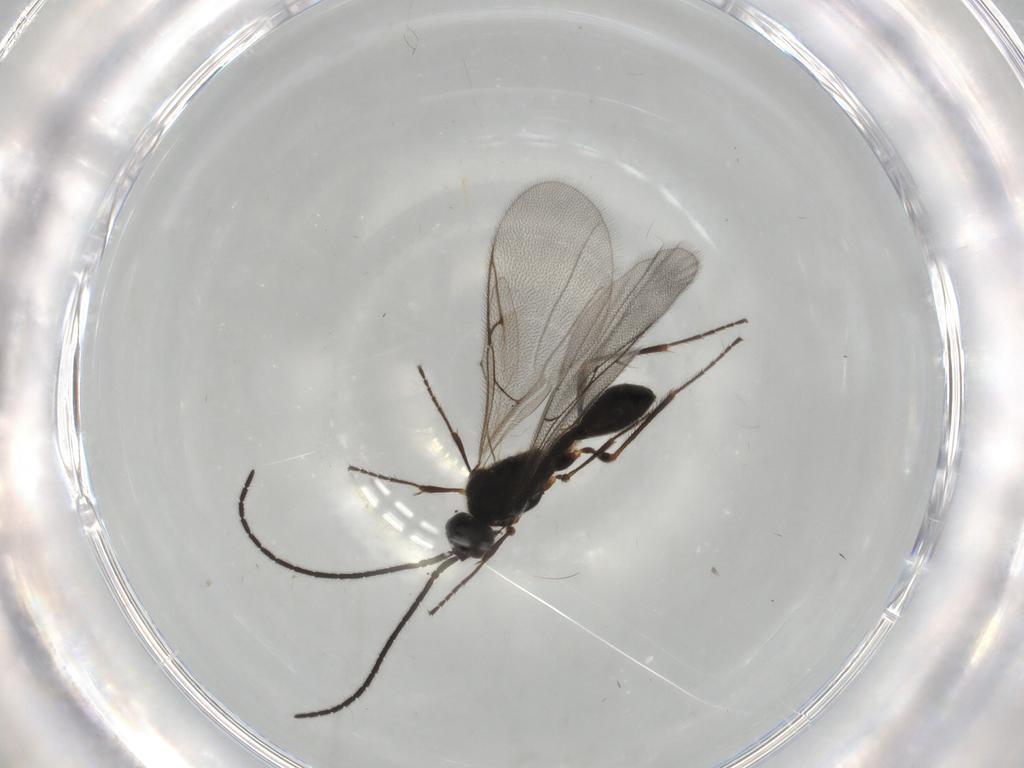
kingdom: Animalia
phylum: Arthropoda
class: Insecta
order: Hymenoptera
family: Diapriidae
